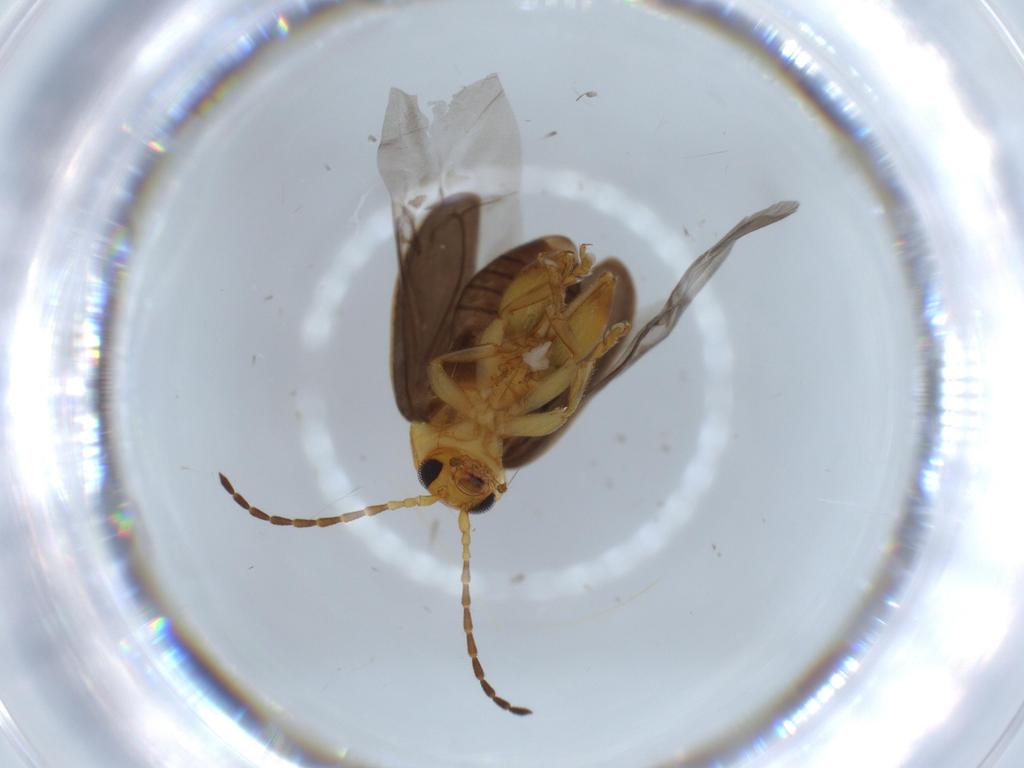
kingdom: Animalia
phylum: Arthropoda
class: Insecta
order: Coleoptera
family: Chrysomelidae
